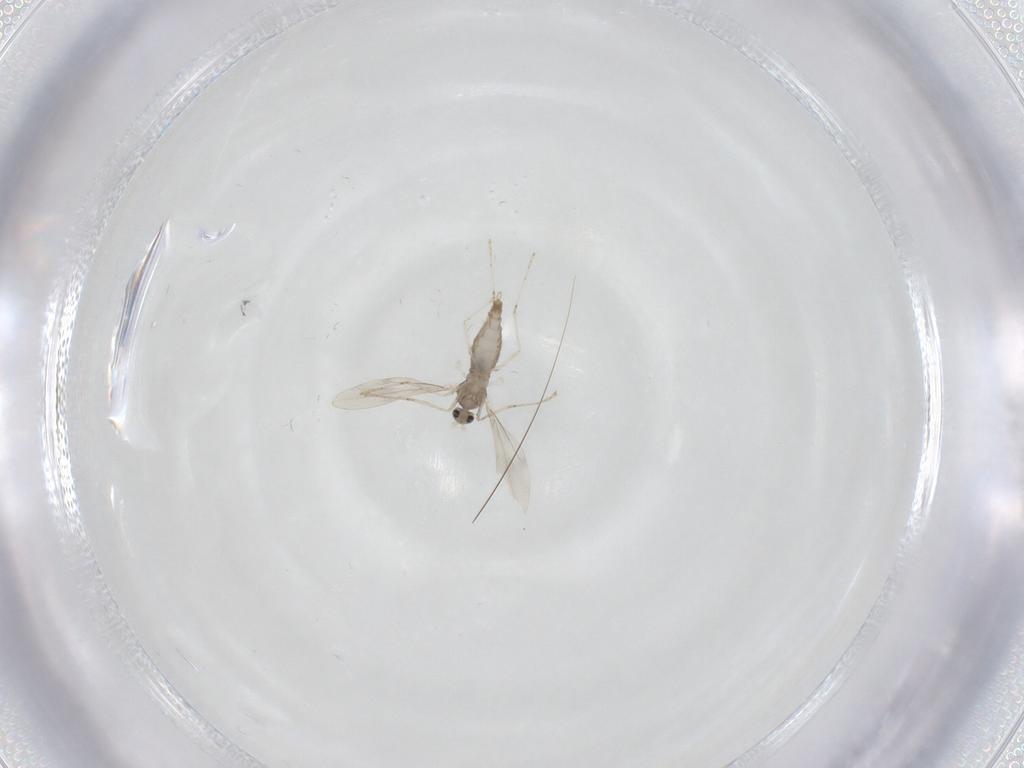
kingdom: Animalia
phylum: Arthropoda
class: Insecta
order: Diptera
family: Cecidomyiidae
